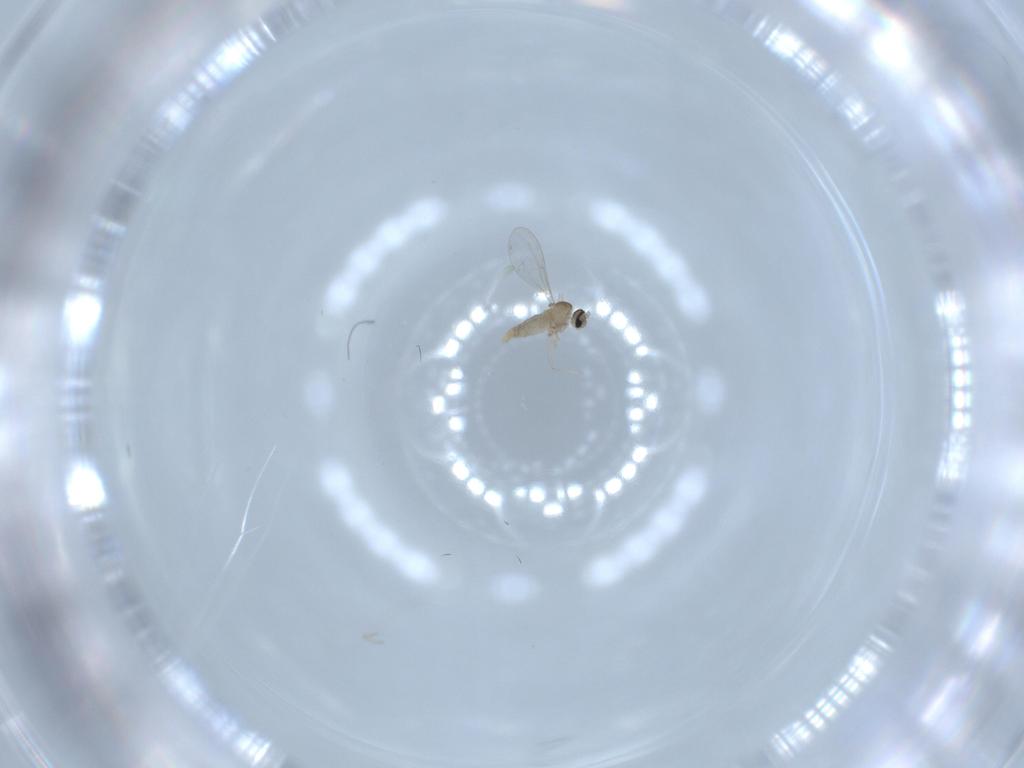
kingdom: Animalia
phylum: Arthropoda
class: Insecta
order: Diptera
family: Cecidomyiidae
